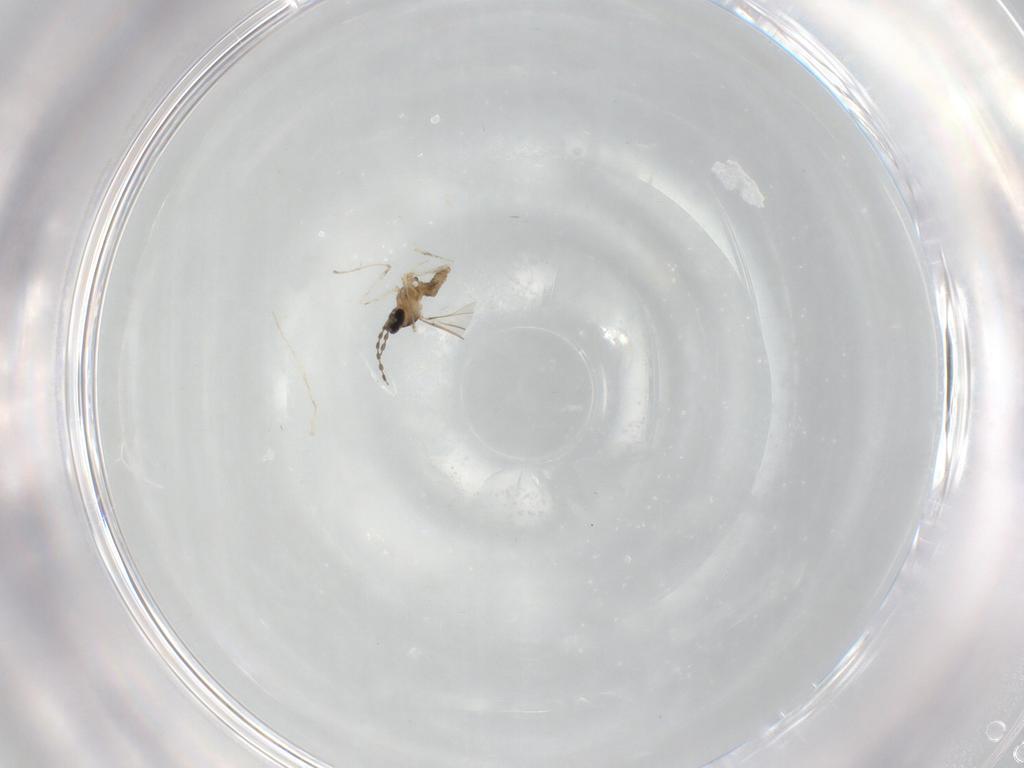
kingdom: Animalia
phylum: Arthropoda
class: Insecta
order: Diptera
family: Cecidomyiidae
